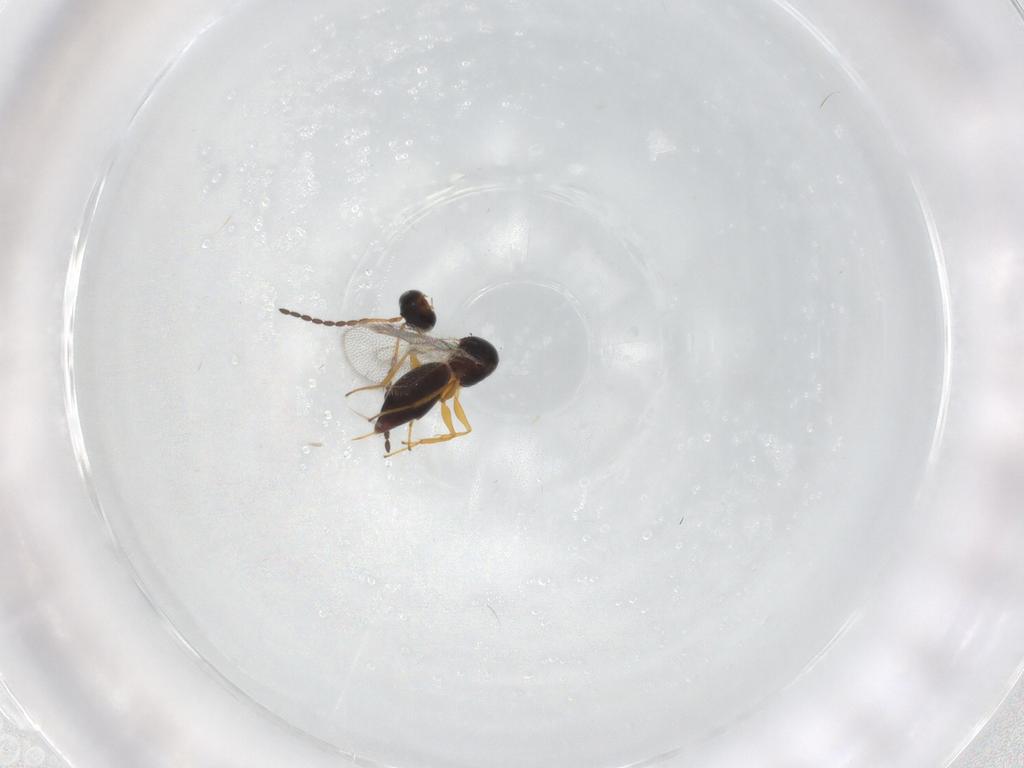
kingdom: Animalia
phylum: Arthropoda
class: Insecta
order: Hymenoptera
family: Figitidae
